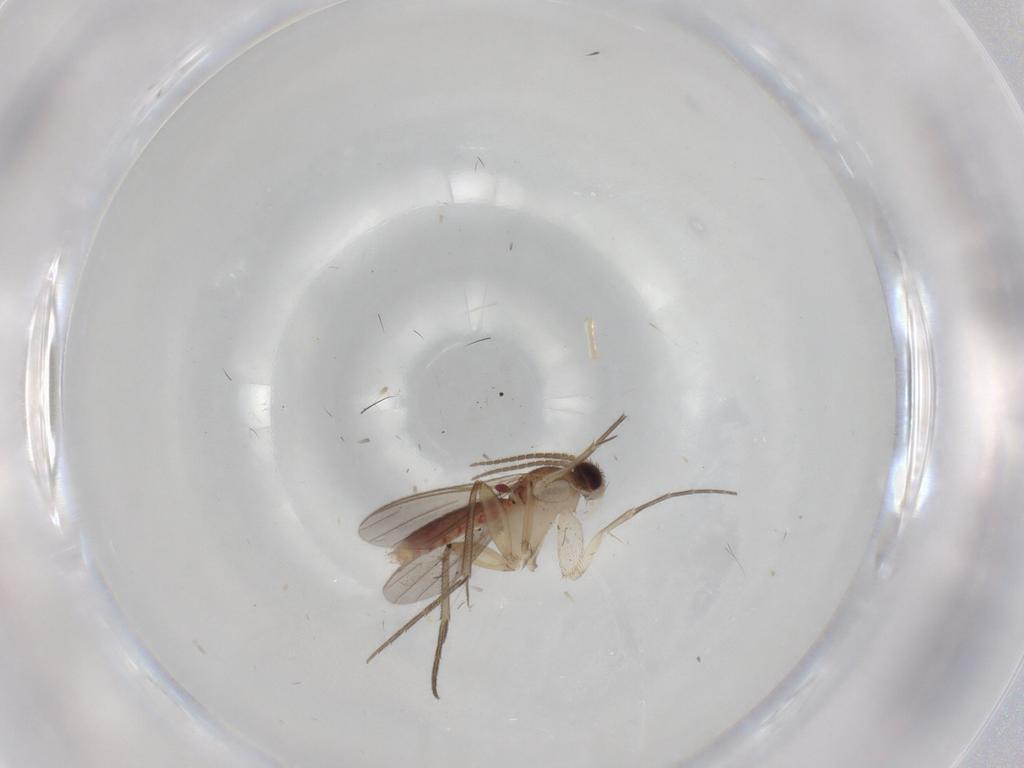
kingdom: Animalia
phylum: Arthropoda
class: Insecta
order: Diptera
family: Mycetophilidae
